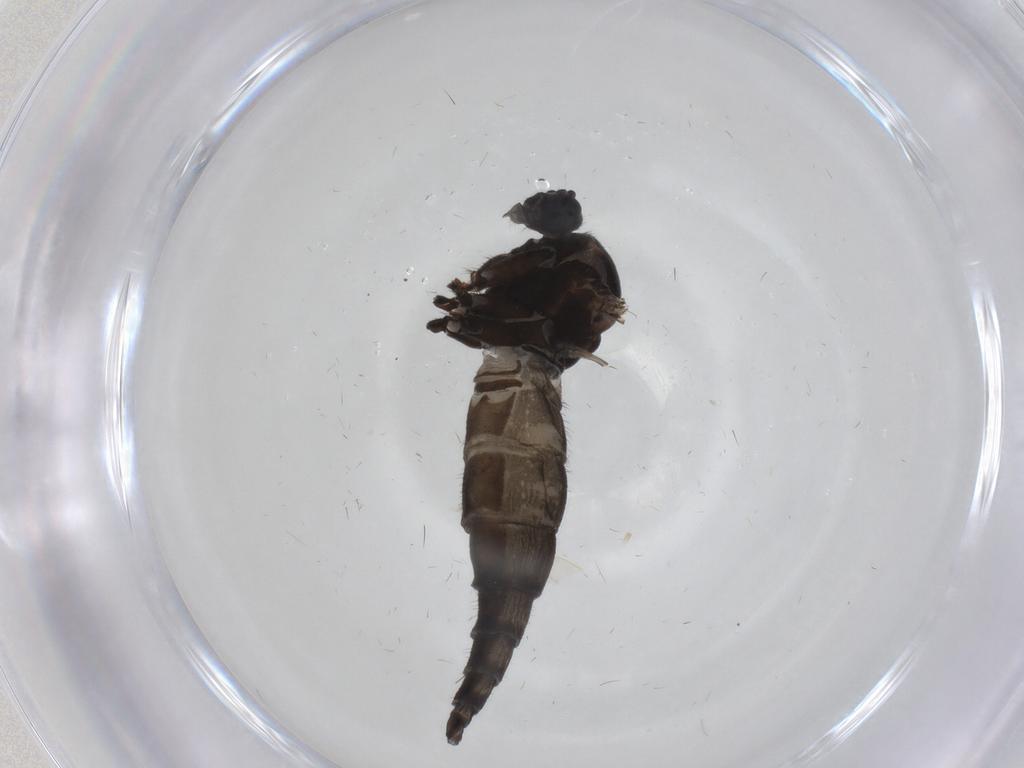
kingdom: Animalia
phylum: Arthropoda
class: Insecta
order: Diptera
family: Sciaridae
